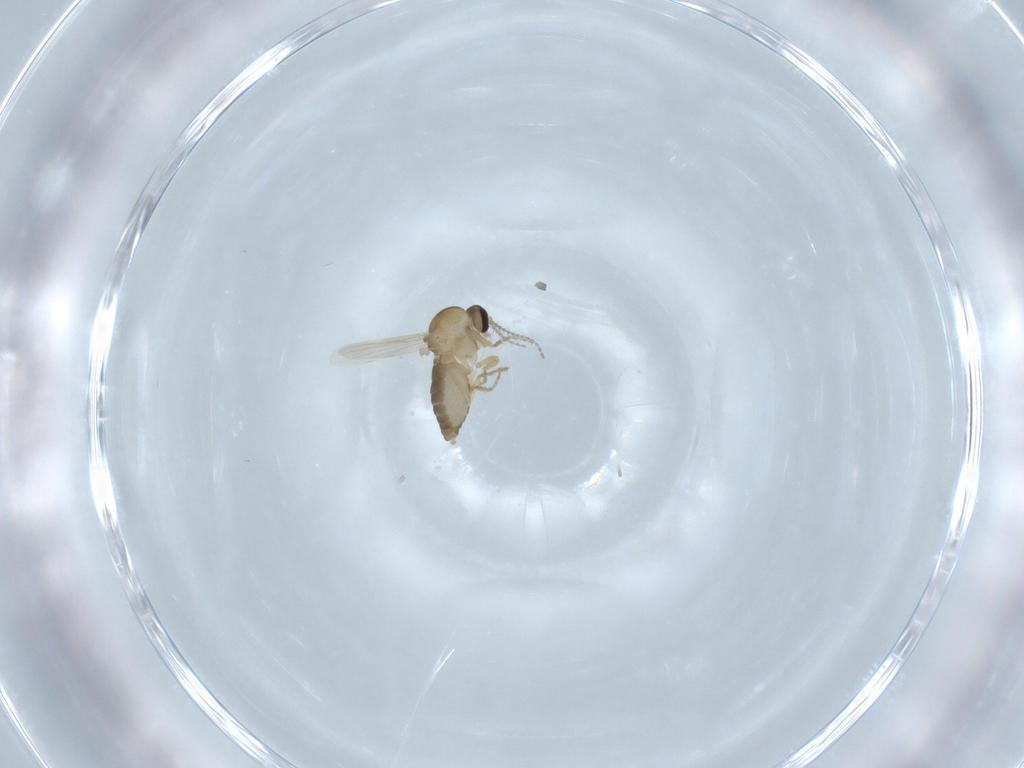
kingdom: Animalia
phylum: Arthropoda
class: Insecta
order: Diptera
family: Ceratopogonidae
